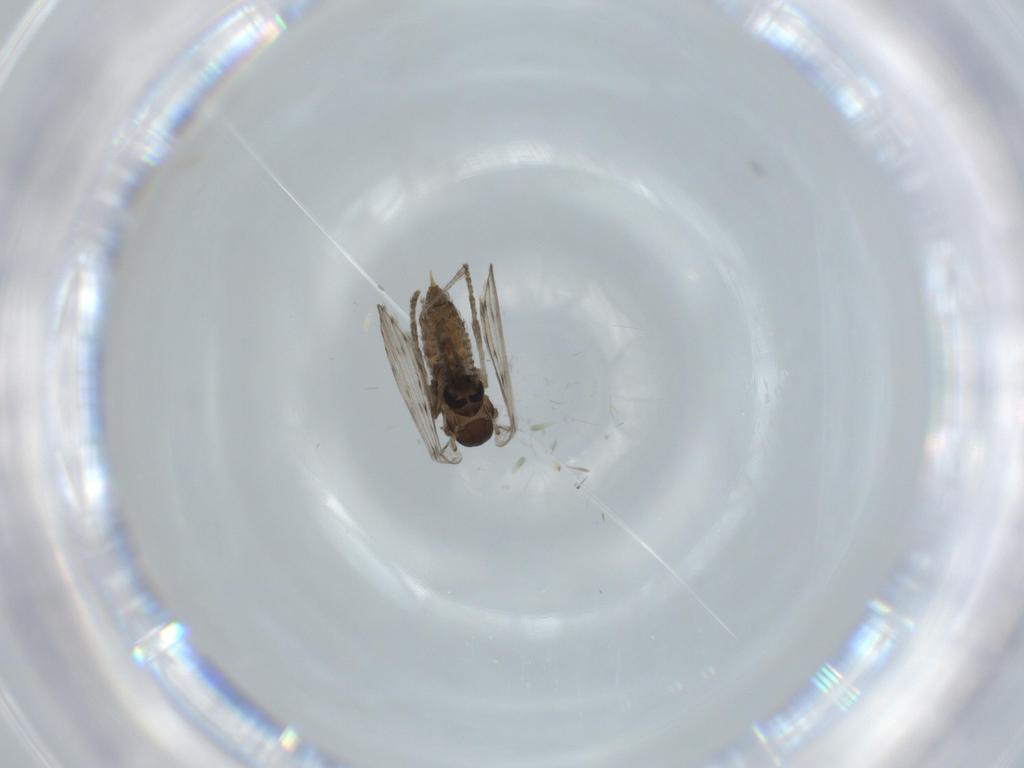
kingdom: Animalia
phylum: Arthropoda
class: Insecta
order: Diptera
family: Psychodidae
